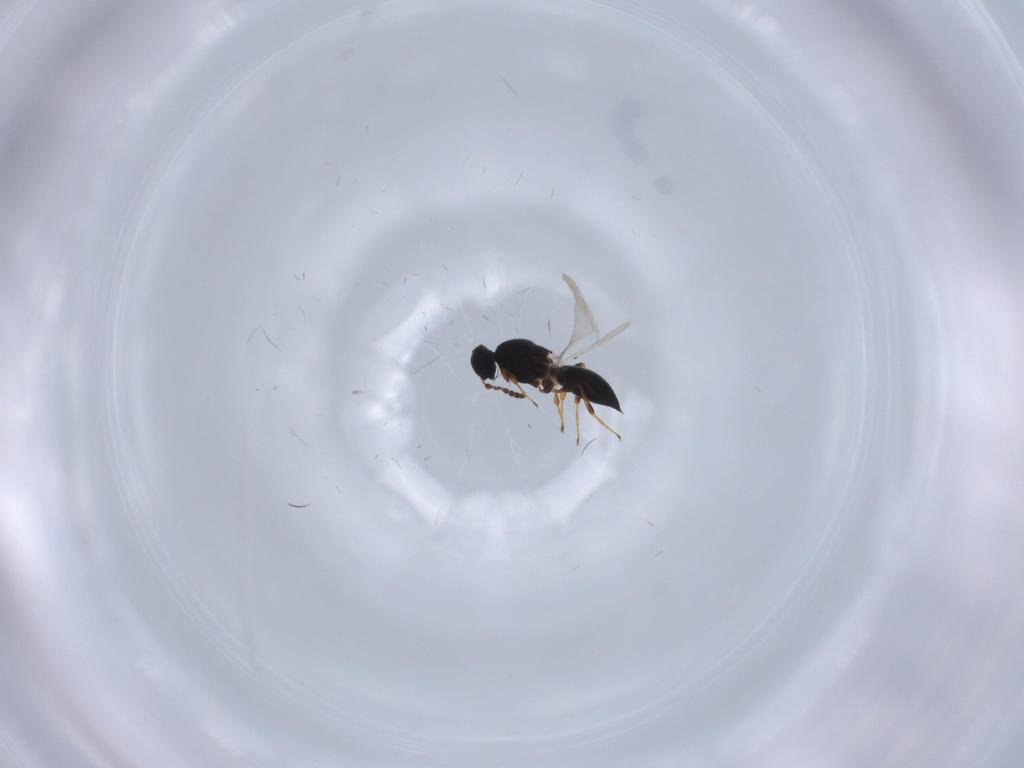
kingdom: Animalia
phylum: Arthropoda
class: Insecta
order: Hymenoptera
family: Platygastridae
